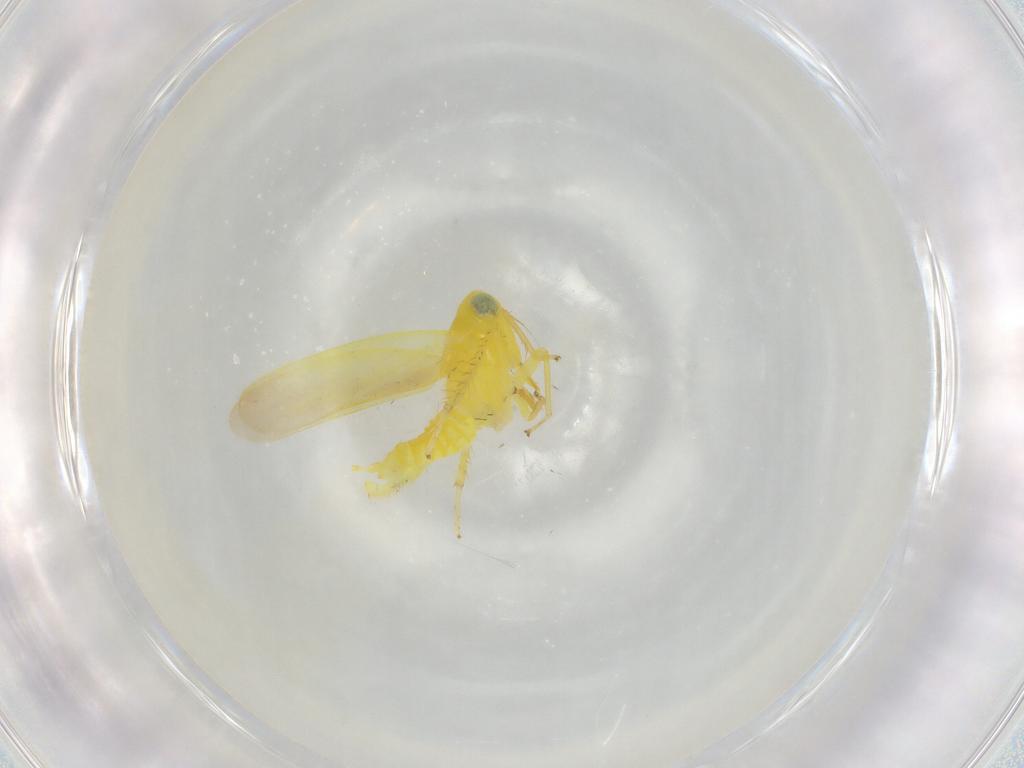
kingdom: Animalia
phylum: Arthropoda
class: Insecta
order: Hemiptera
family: Cicadellidae
